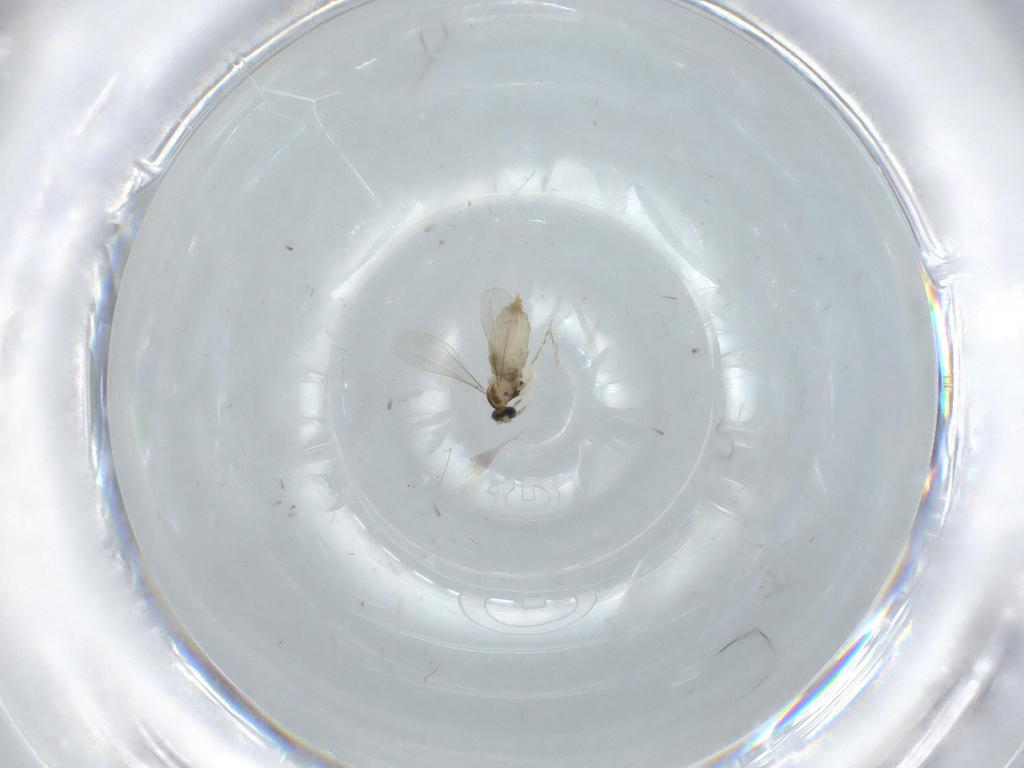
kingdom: Animalia
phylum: Arthropoda
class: Insecta
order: Diptera
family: Cecidomyiidae
